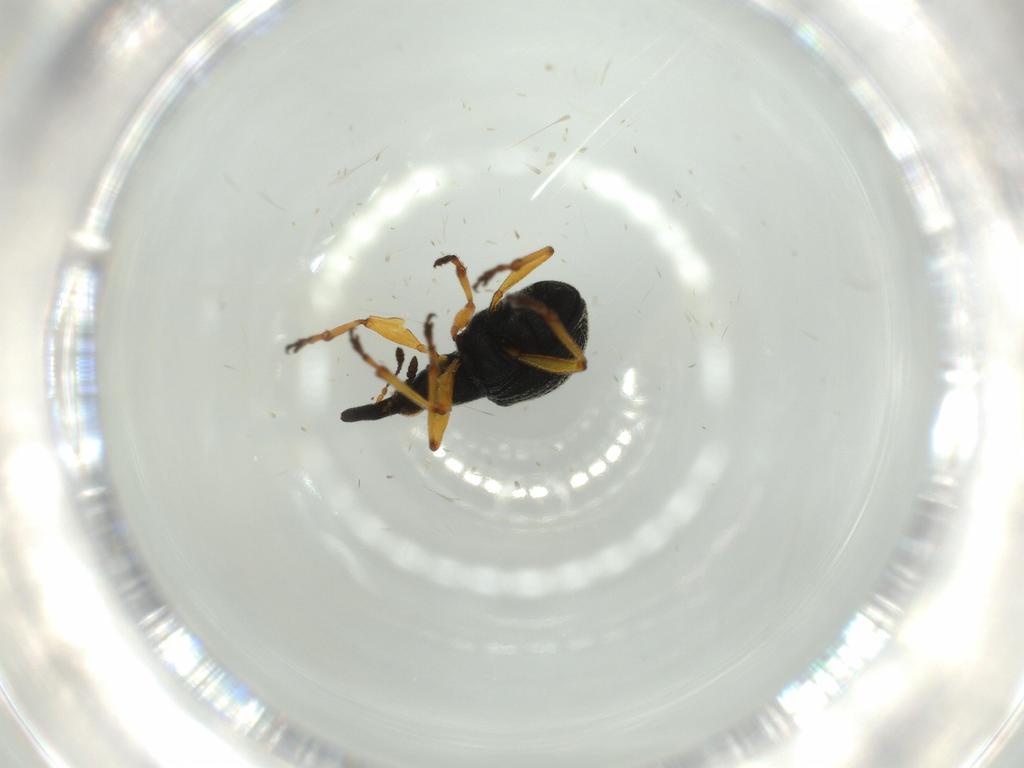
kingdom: Animalia
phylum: Arthropoda
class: Insecta
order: Coleoptera
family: Brentidae
